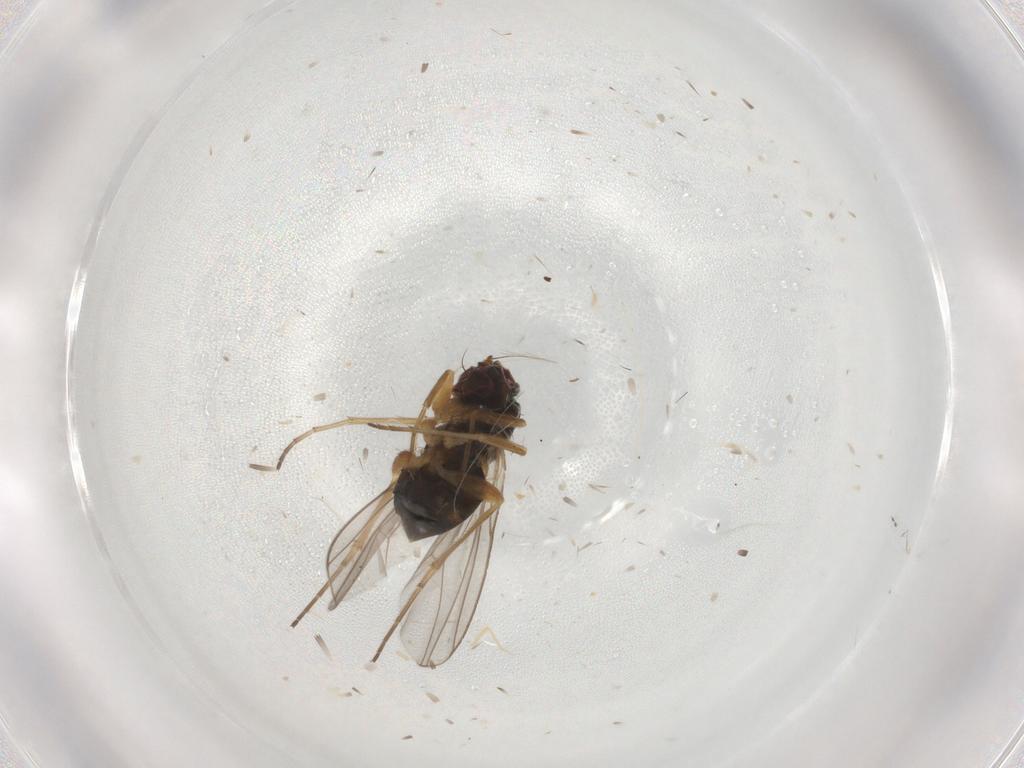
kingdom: Animalia
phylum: Arthropoda
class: Insecta
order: Diptera
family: Dolichopodidae
